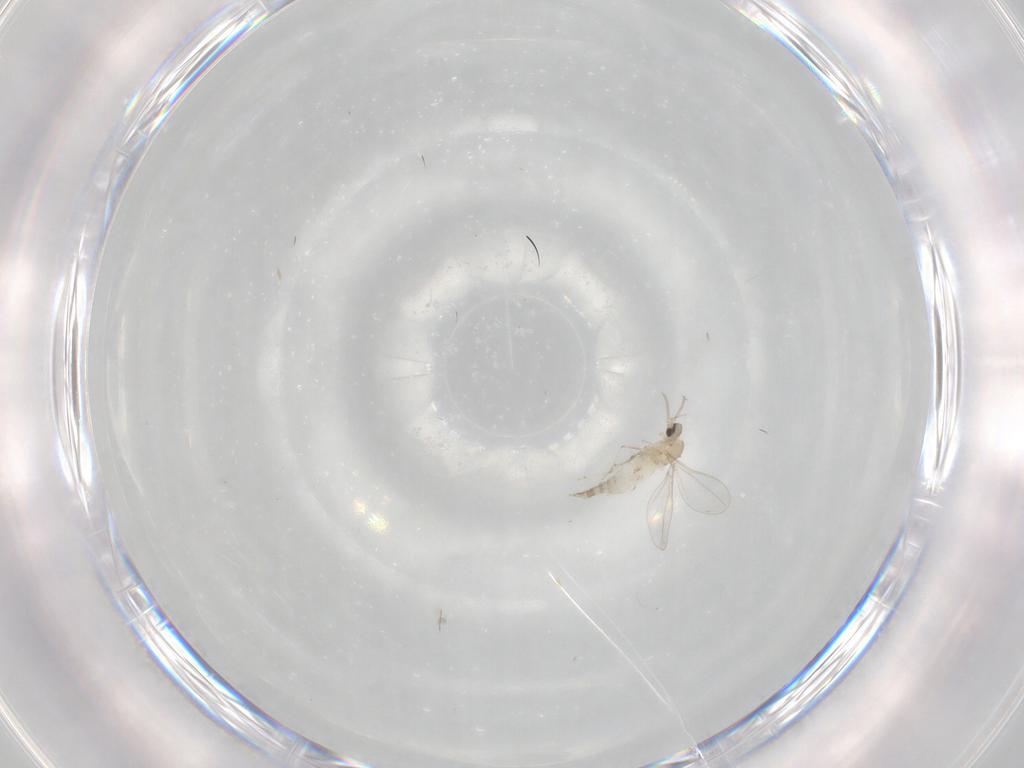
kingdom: Animalia
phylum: Arthropoda
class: Insecta
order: Diptera
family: Cecidomyiidae
